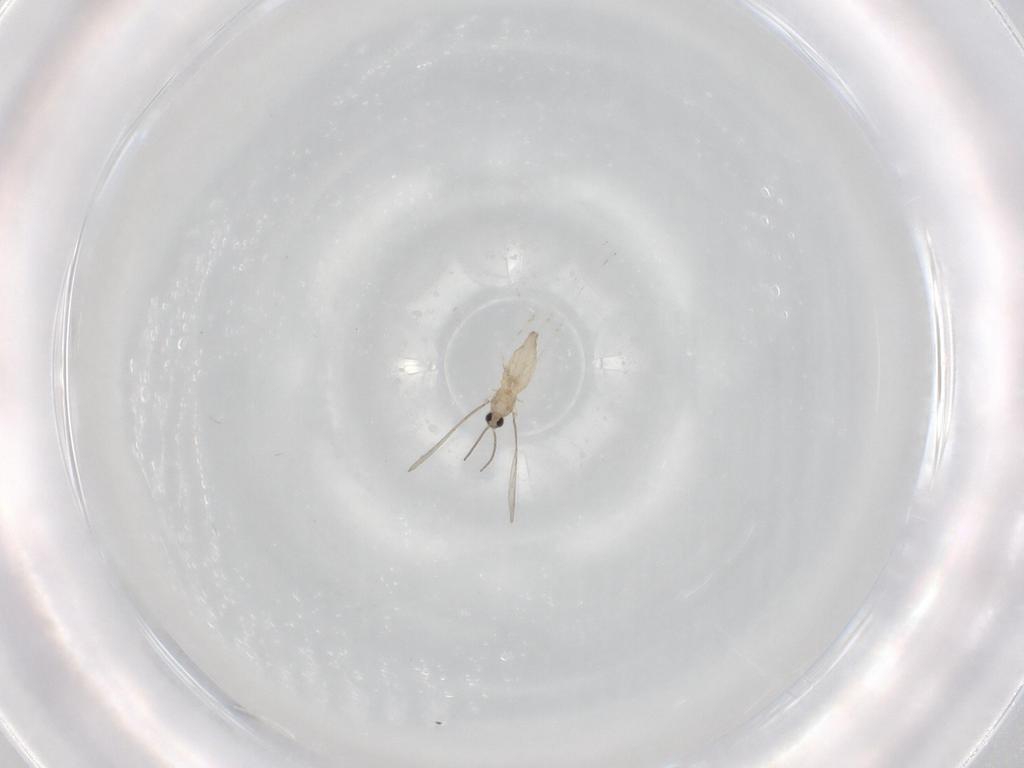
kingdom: Animalia
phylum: Arthropoda
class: Insecta
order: Diptera
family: Cecidomyiidae
